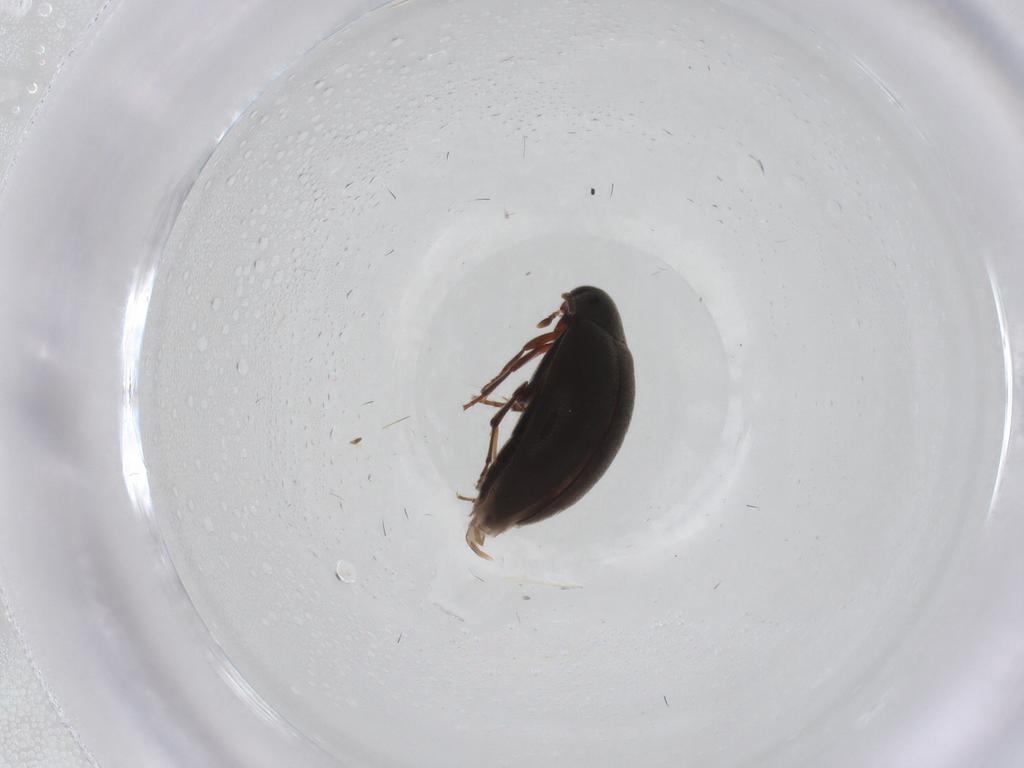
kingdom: Animalia
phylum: Arthropoda
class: Insecta
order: Coleoptera
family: Melandryidae
